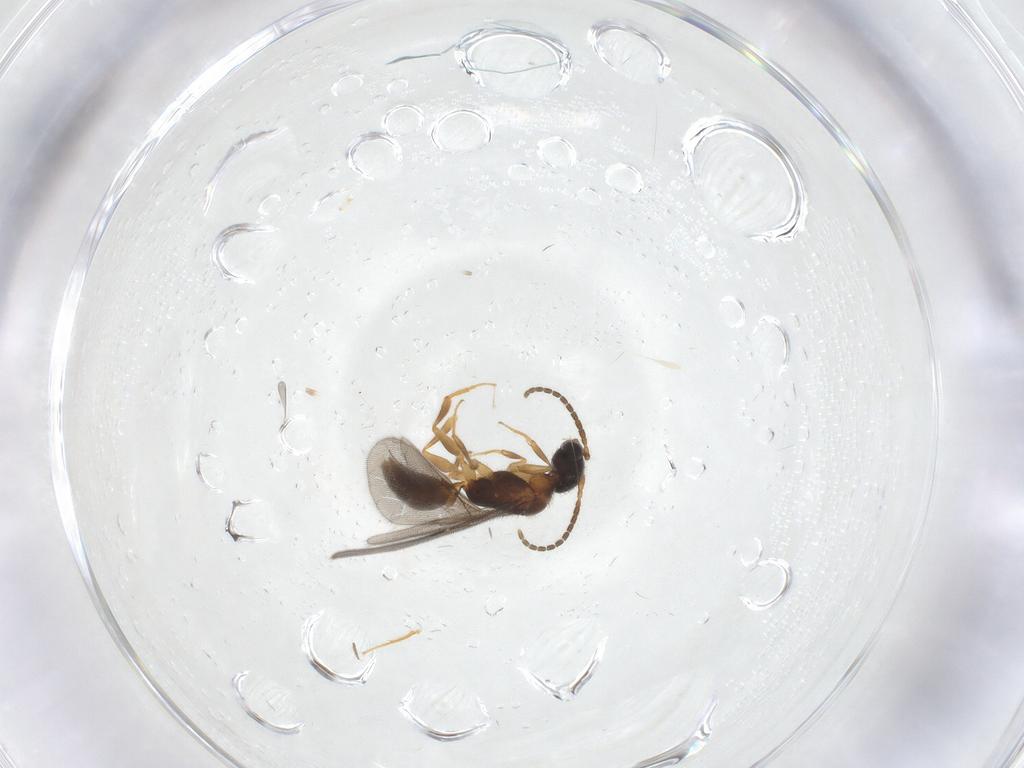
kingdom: Animalia
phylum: Arthropoda
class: Insecta
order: Hymenoptera
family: Bethylidae
